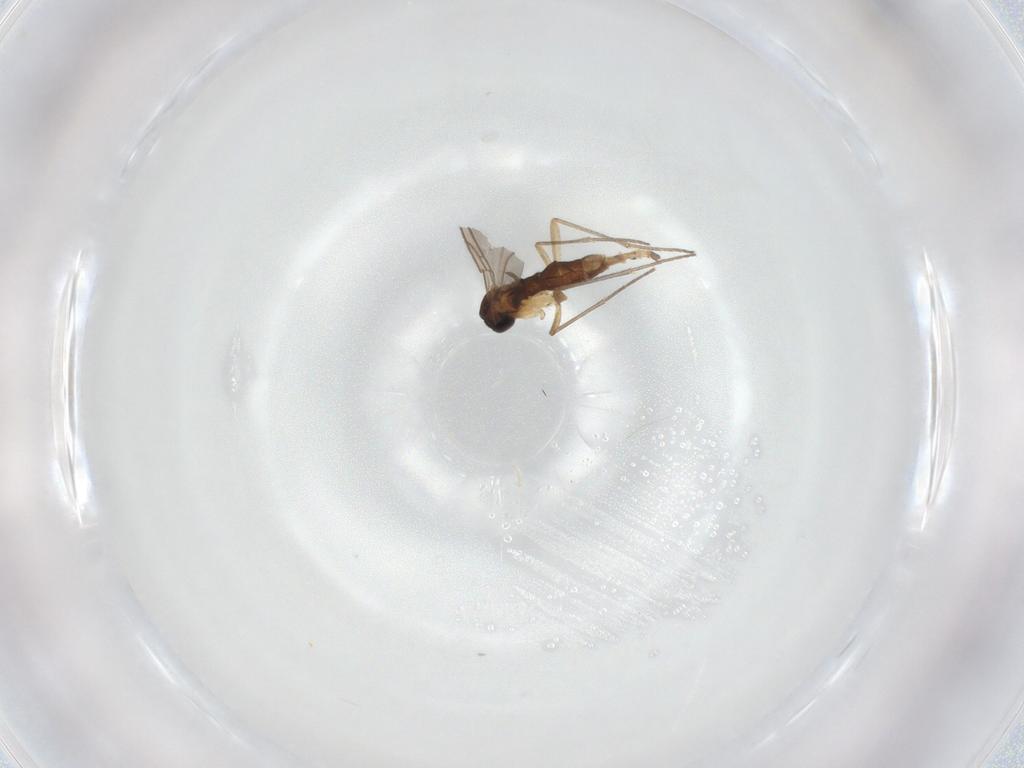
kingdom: Animalia
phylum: Arthropoda
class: Insecta
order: Diptera
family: Sciaridae
